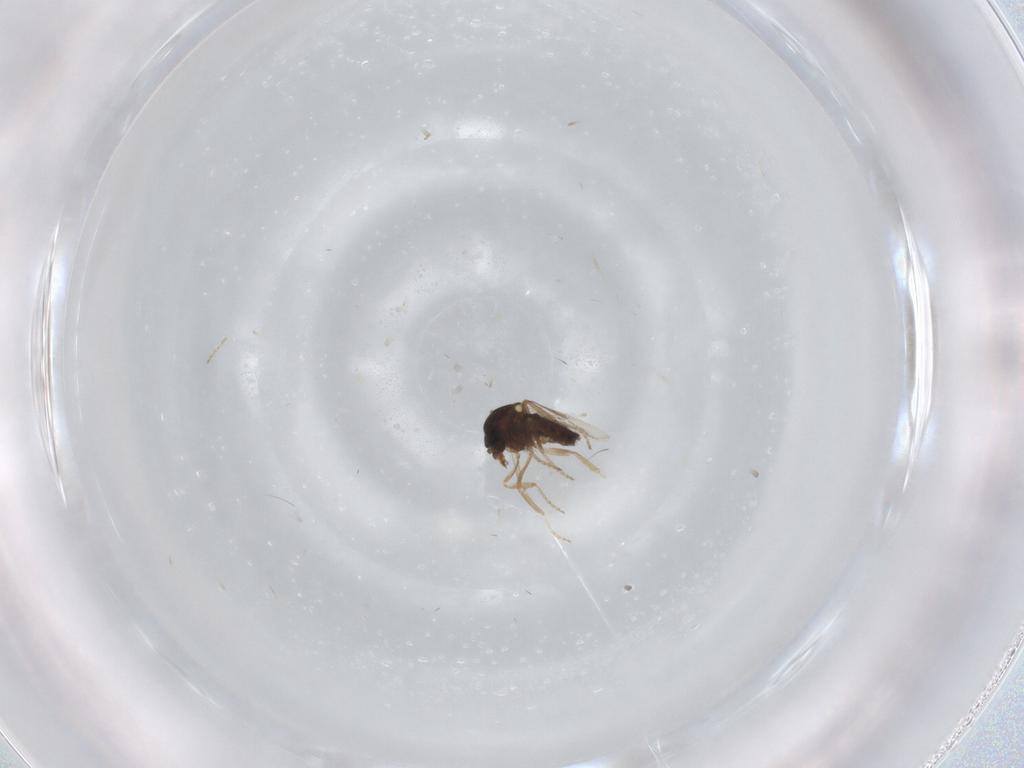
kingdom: Animalia
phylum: Arthropoda
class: Insecta
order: Diptera
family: Ceratopogonidae
